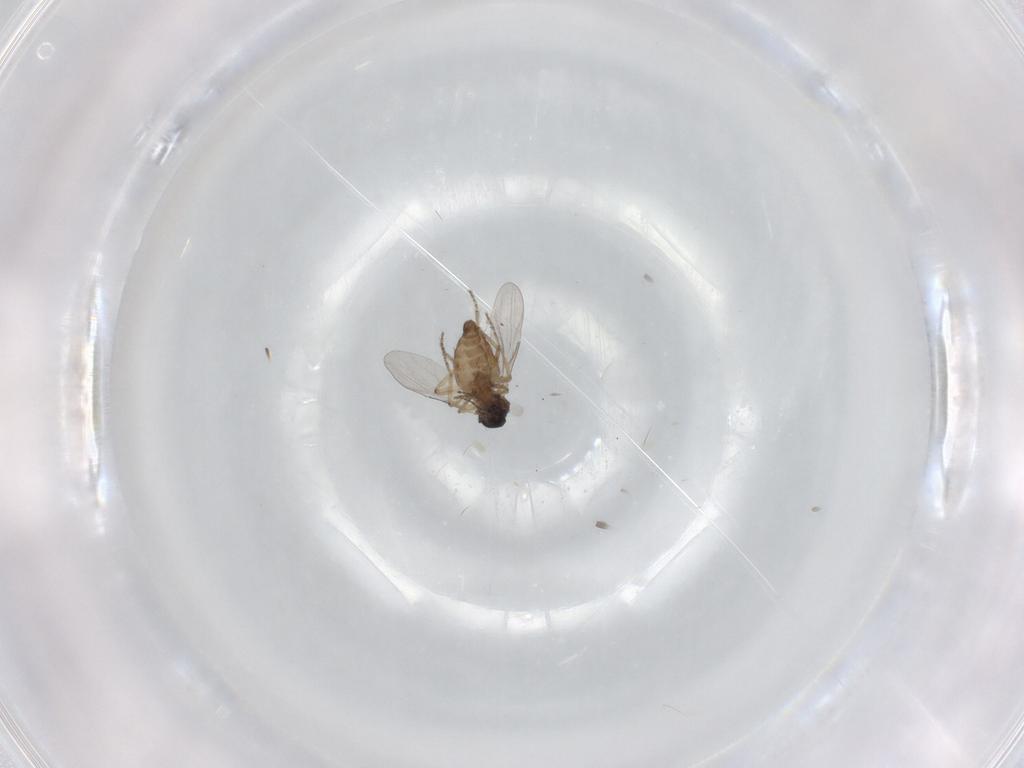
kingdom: Animalia
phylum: Arthropoda
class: Insecta
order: Diptera
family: Ceratopogonidae
